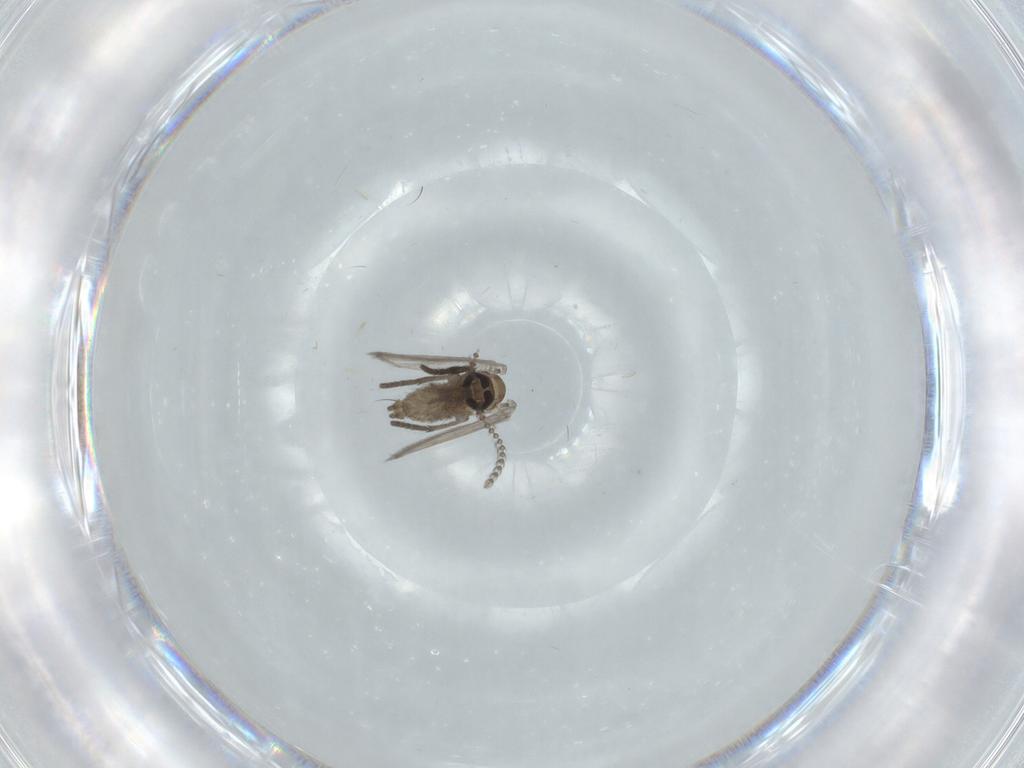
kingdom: Animalia
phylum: Arthropoda
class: Insecta
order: Diptera
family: Psychodidae
